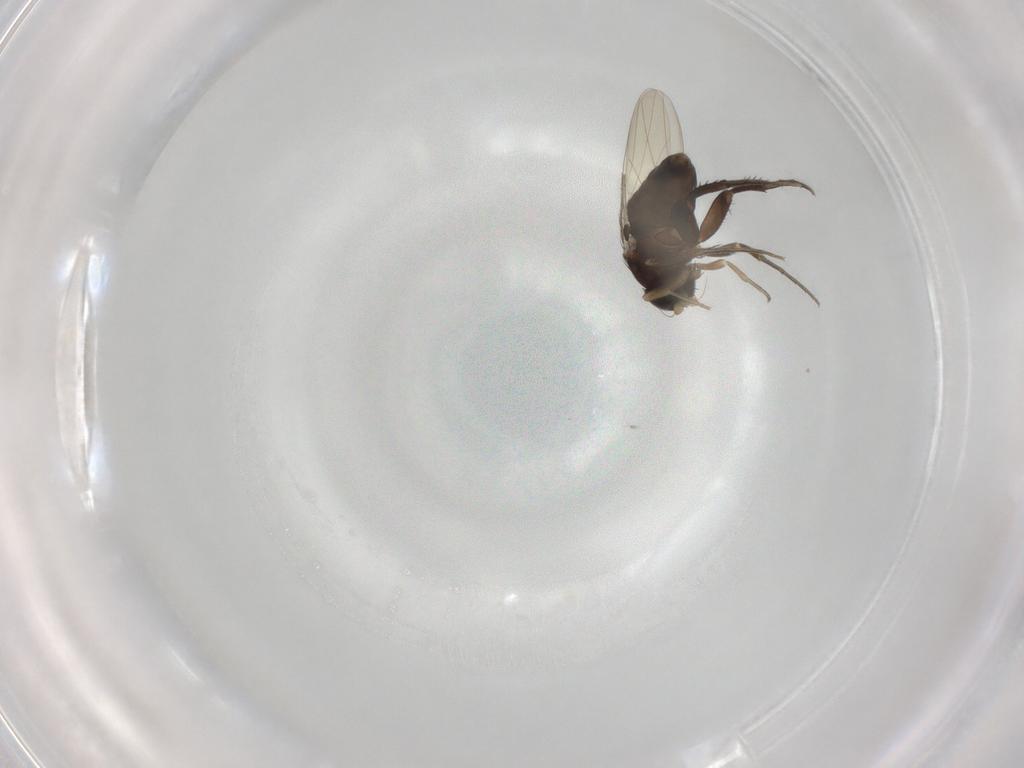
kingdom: Animalia
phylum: Arthropoda
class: Insecta
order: Diptera
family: Phoridae
